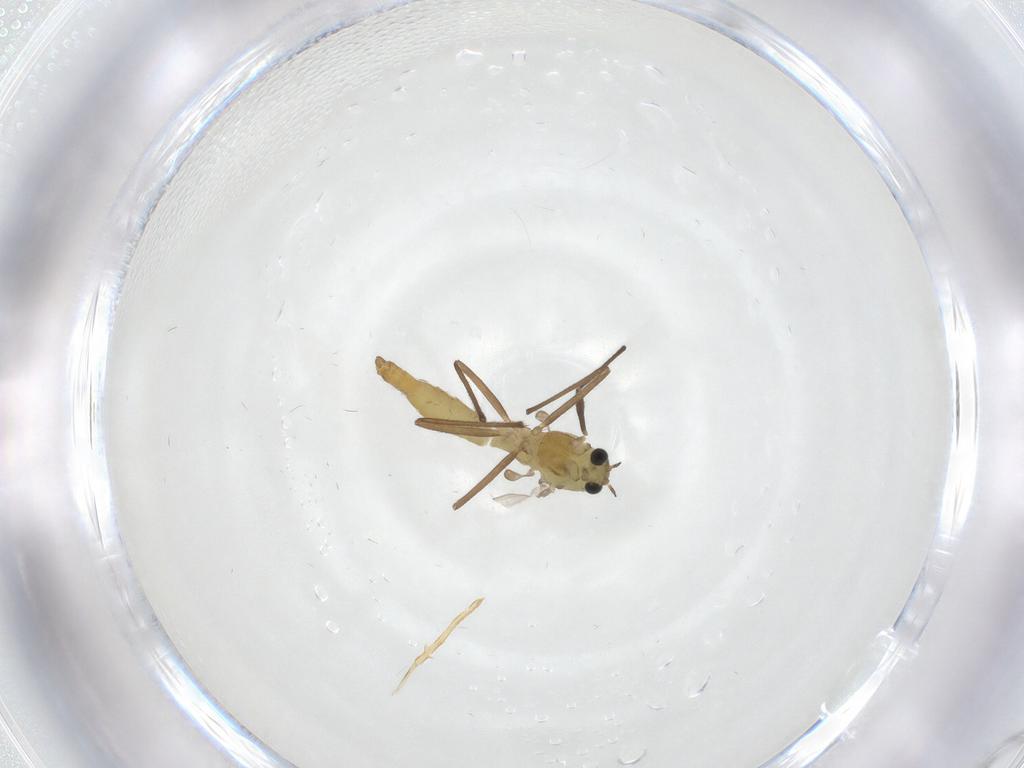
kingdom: Animalia
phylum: Arthropoda
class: Insecta
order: Diptera
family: Chironomidae
